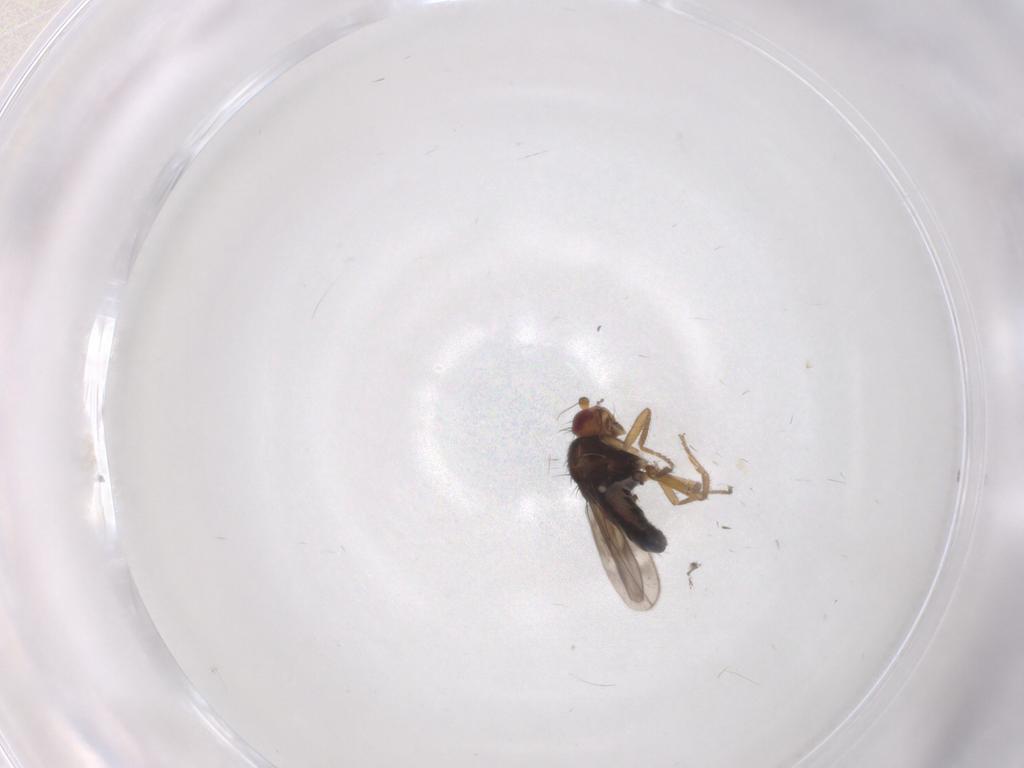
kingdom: Animalia
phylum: Arthropoda
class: Insecta
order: Diptera
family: Sphaeroceridae
